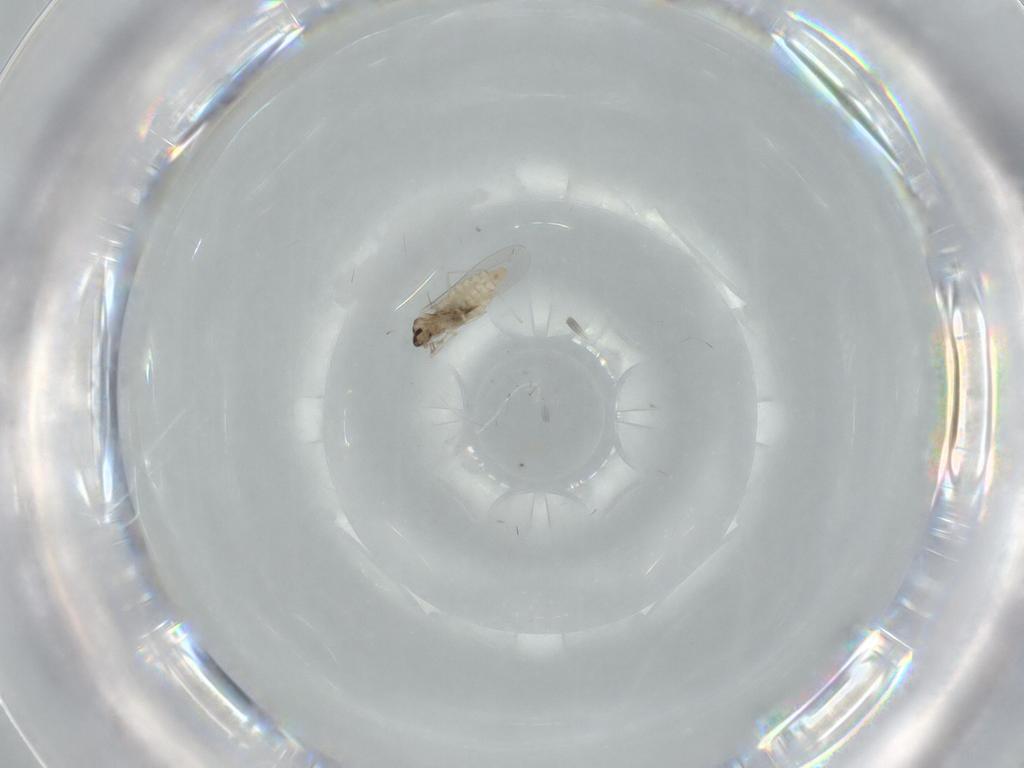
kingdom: Animalia
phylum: Arthropoda
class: Insecta
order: Diptera
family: Cecidomyiidae
